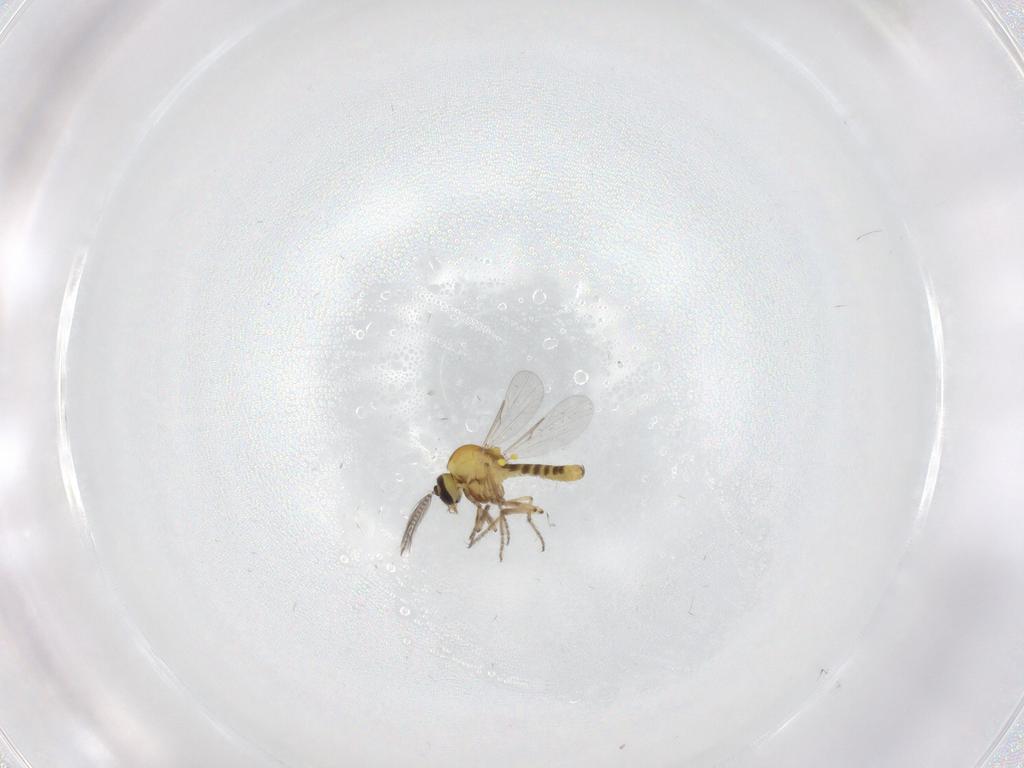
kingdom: Animalia
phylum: Arthropoda
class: Insecta
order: Diptera
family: Ceratopogonidae
